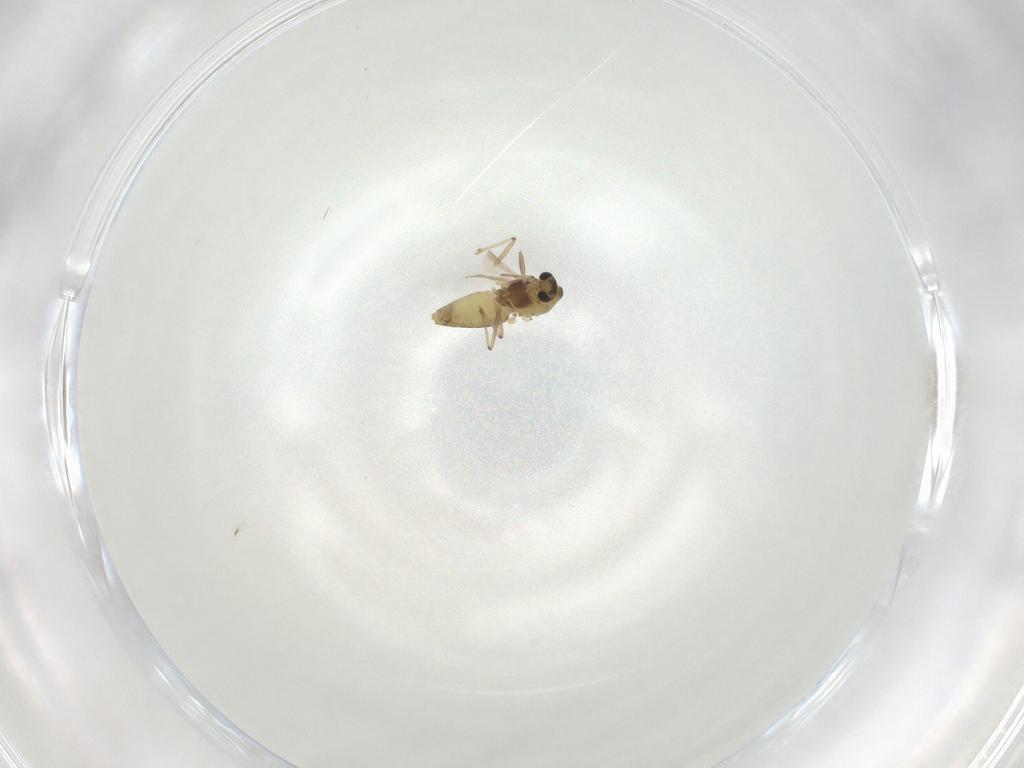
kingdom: Animalia
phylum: Arthropoda
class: Insecta
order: Diptera
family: Chironomidae
